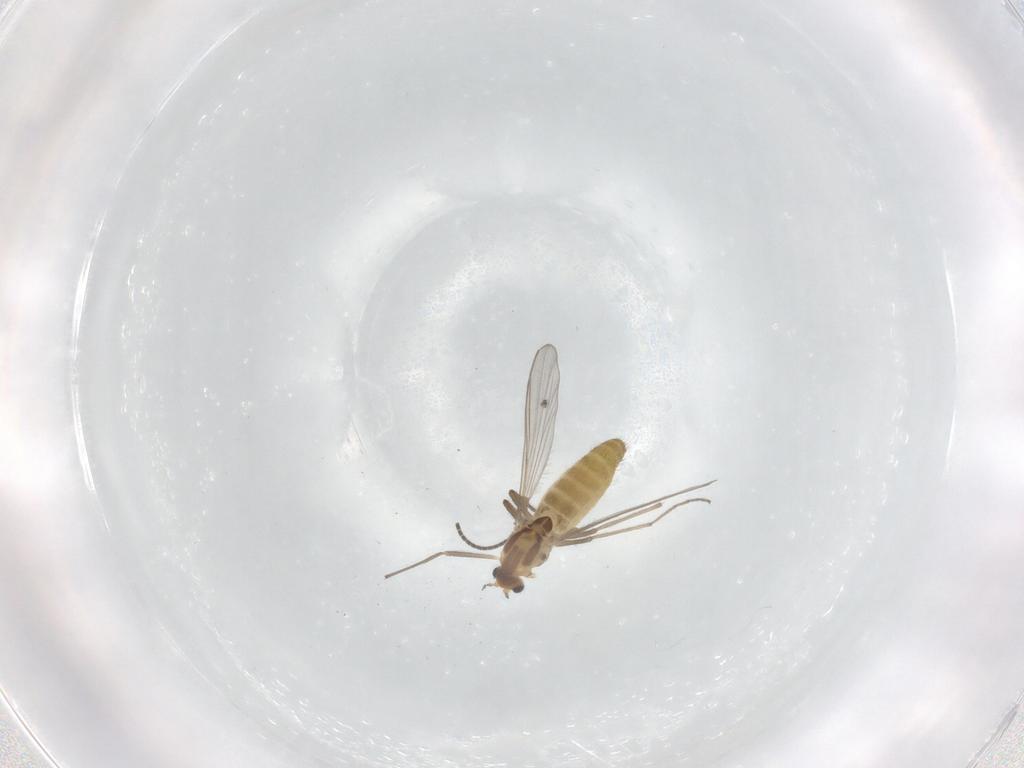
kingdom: Animalia
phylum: Arthropoda
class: Insecta
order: Diptera
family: Chironomidae
